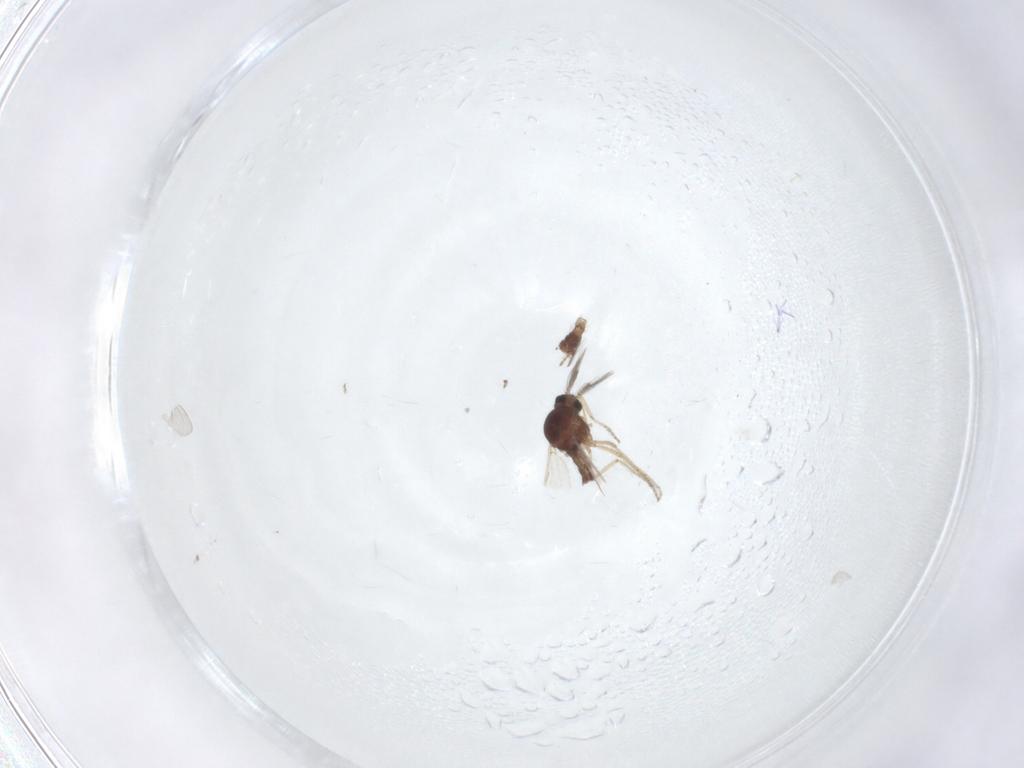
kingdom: Animalia
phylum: Arthropoda
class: Insecta
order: Diptera
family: Ceratopogonidae
